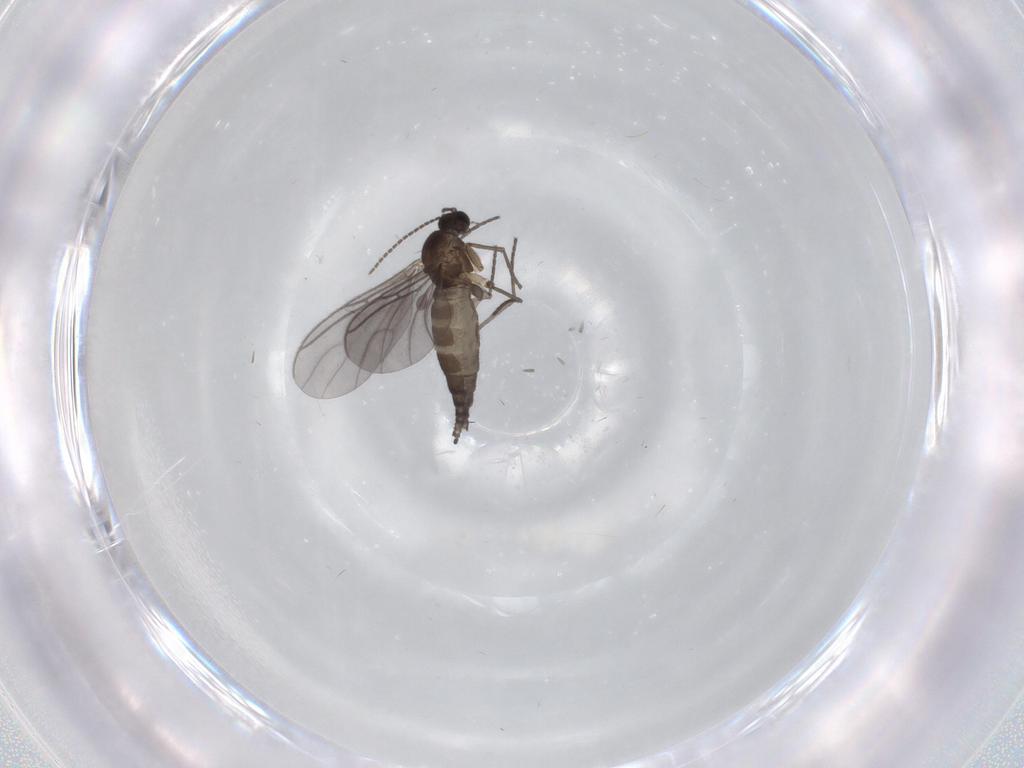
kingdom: Animalia
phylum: Arthropoda
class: Insecta
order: Diptera
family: Sciaridae
